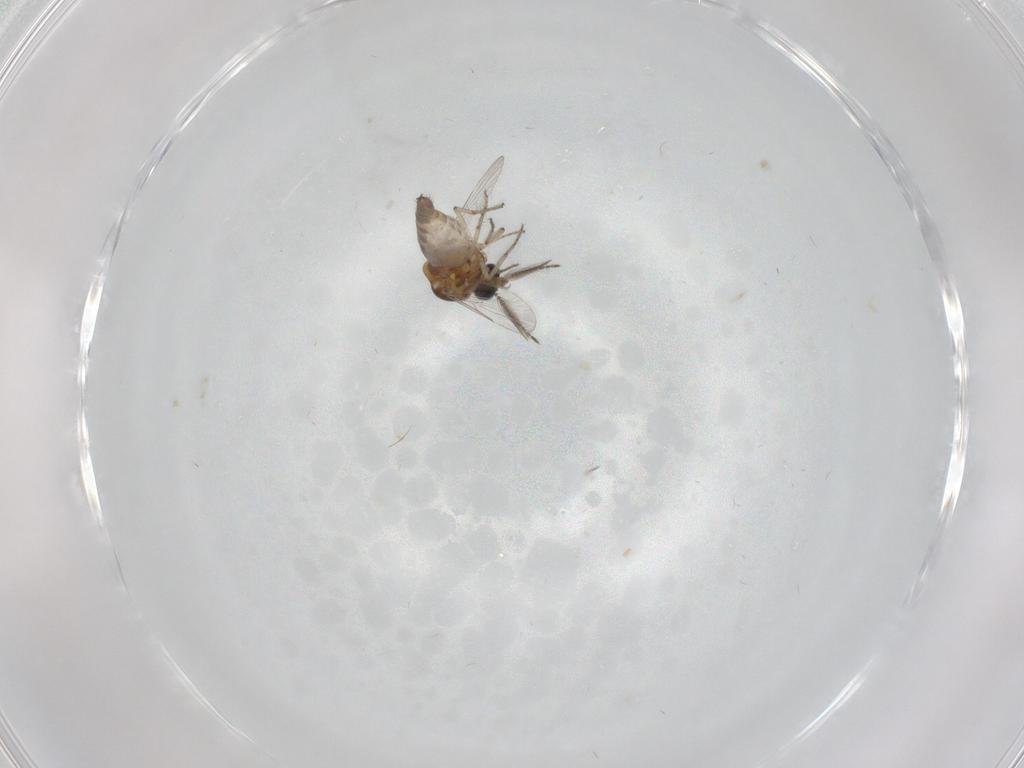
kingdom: Animalia
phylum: Arthropoda
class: Insecta
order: Diptera
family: Ceratopogonidae
